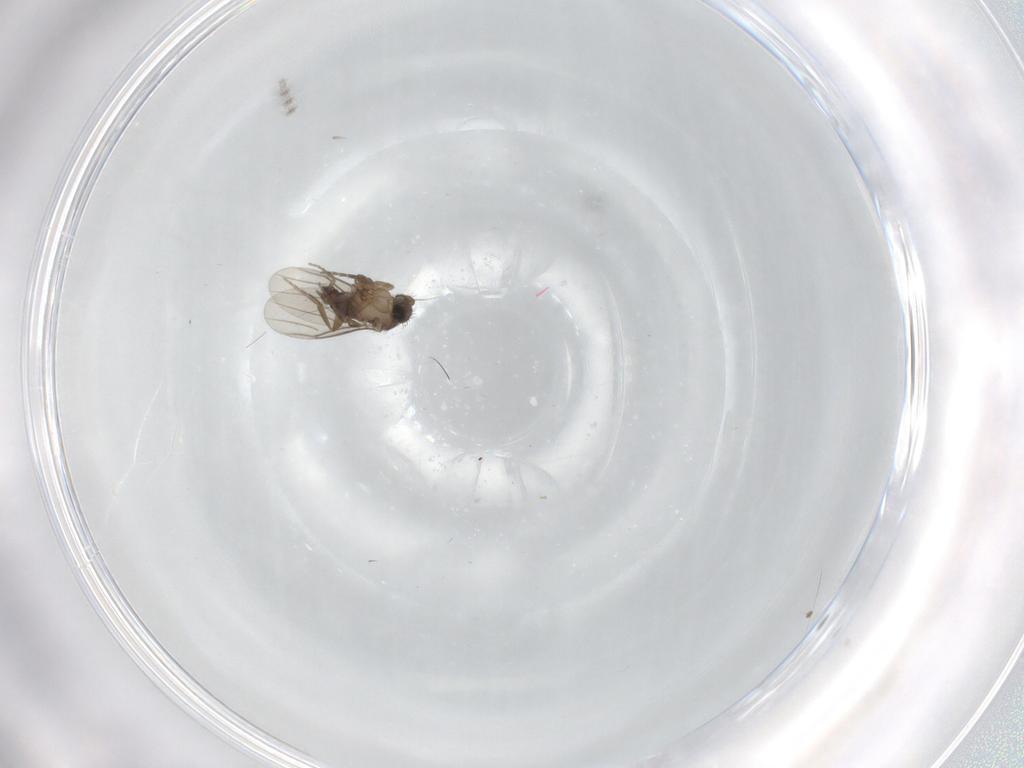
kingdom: Animalia
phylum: Arthropoda
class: Insecta
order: Diptera
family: Chironomidae
